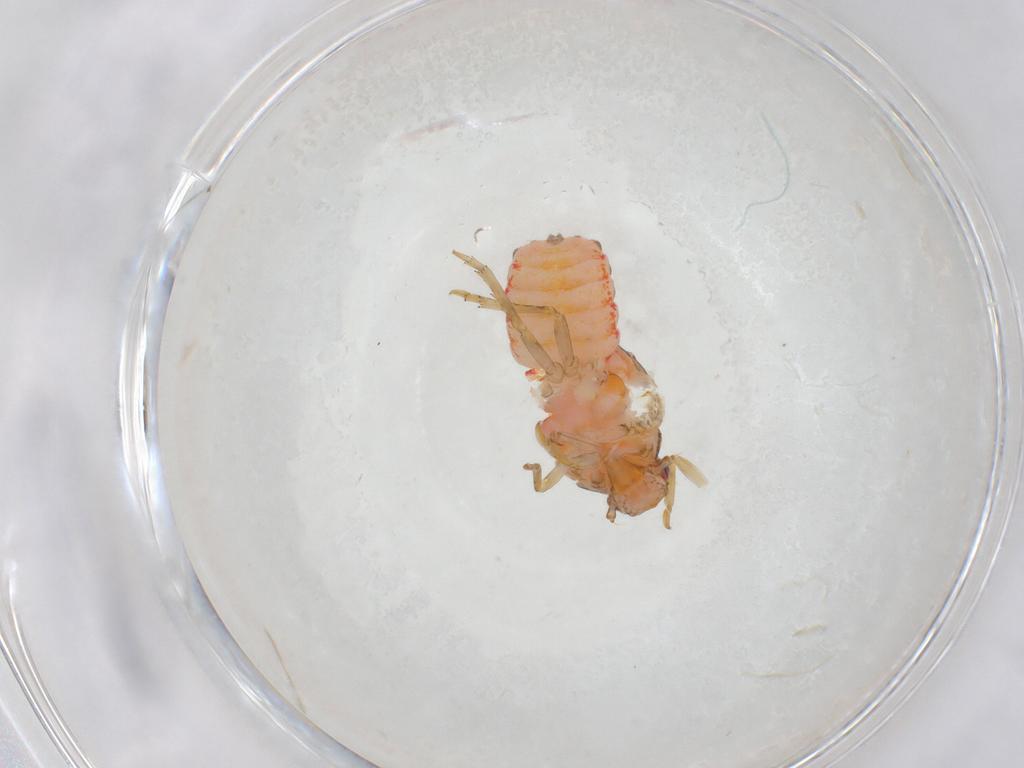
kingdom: Animalia
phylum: Arthropoda
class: Insecta
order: Hemiptera
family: Flatidae
